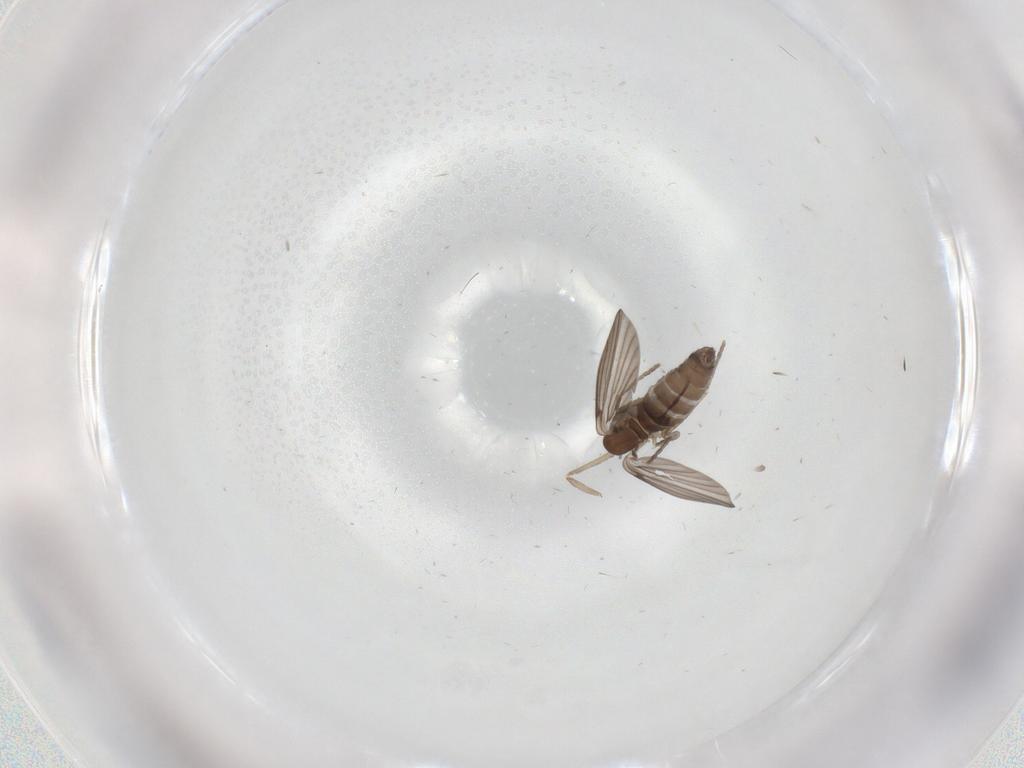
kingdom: Animalia
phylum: Arthropoda
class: Insecta
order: Diptera
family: Psychodidae
